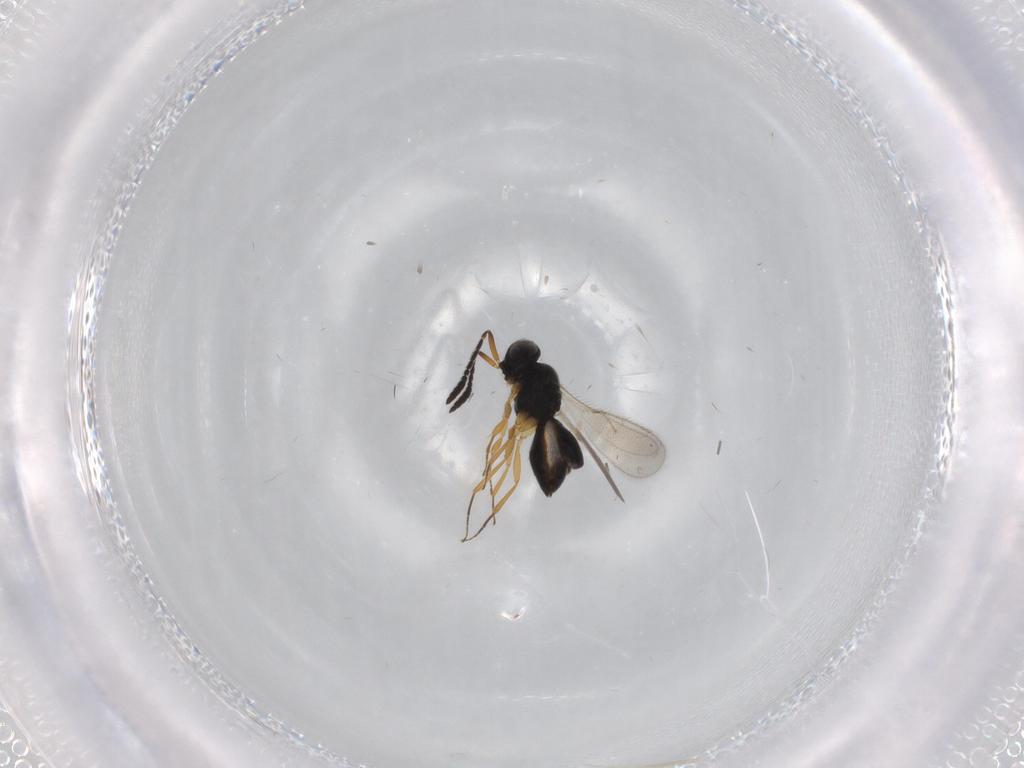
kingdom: Animalia
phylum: Arthropoda
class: Insecta
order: Hymenoptera
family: Scelionidae
